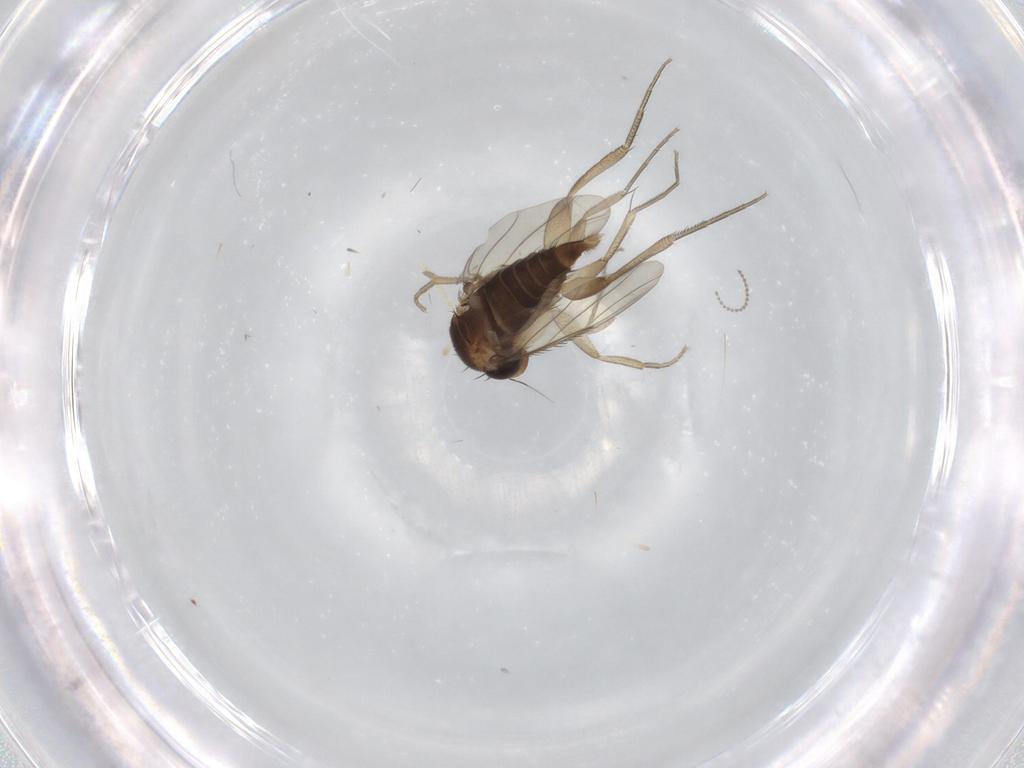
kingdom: Animalia
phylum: Arthropoda
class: Insecta
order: Diptera
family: Phoridae
